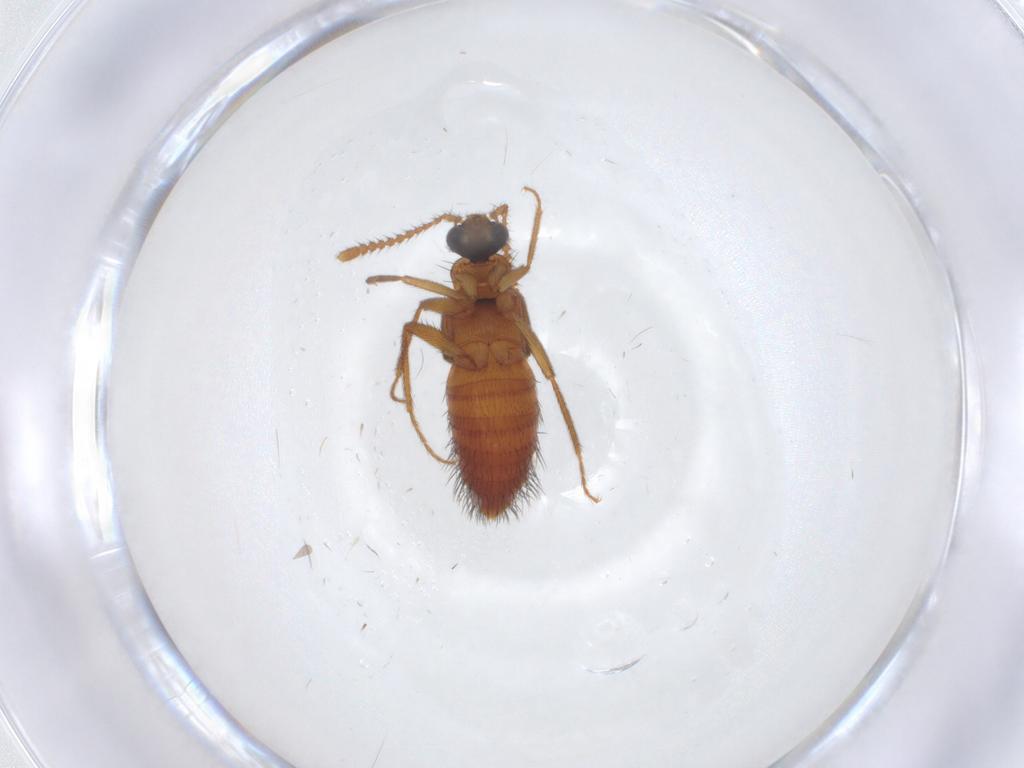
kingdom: Animalia
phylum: Arthropoda
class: Insecta
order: Coleoptera
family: Staphylinidae
